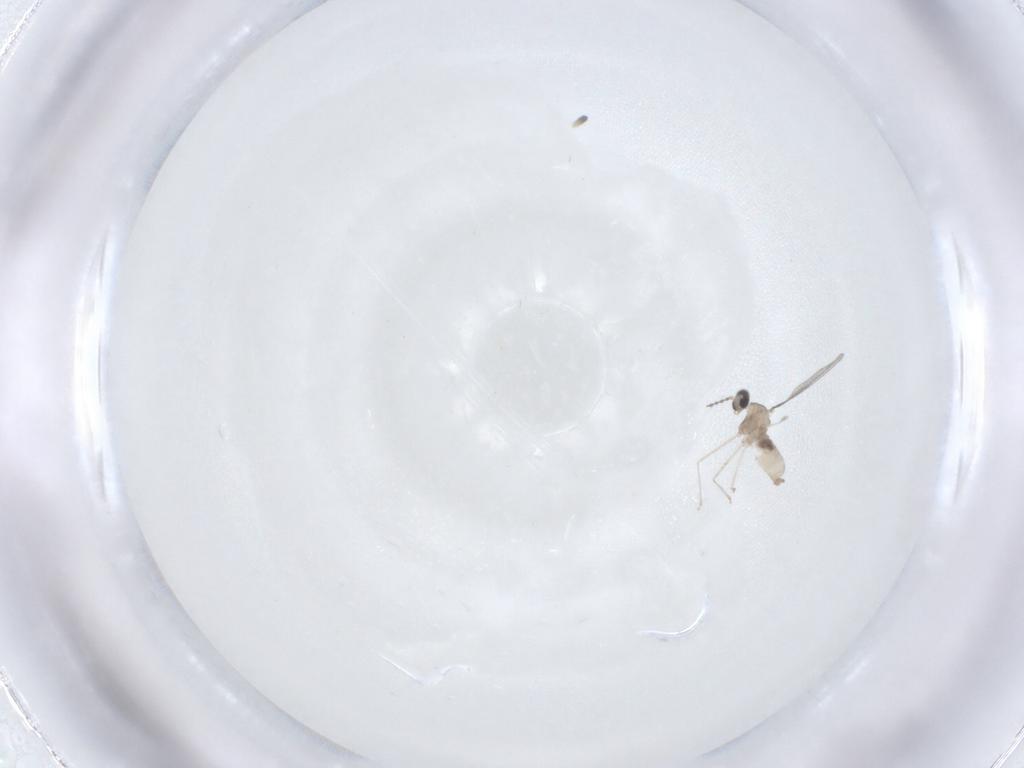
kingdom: Animalia
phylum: Arthropoda
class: Insecta
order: Diptera
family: Cecidomyiidae
